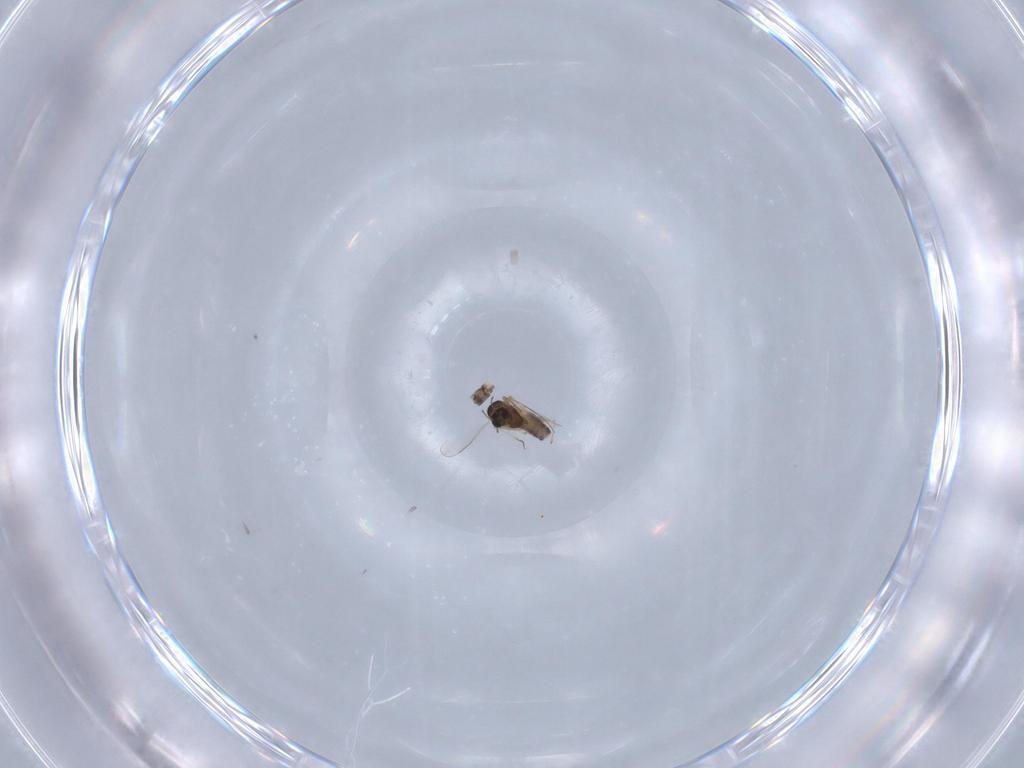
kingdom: Animalia
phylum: Arthropoda
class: Insecta
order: Diptera
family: Chironomidae
